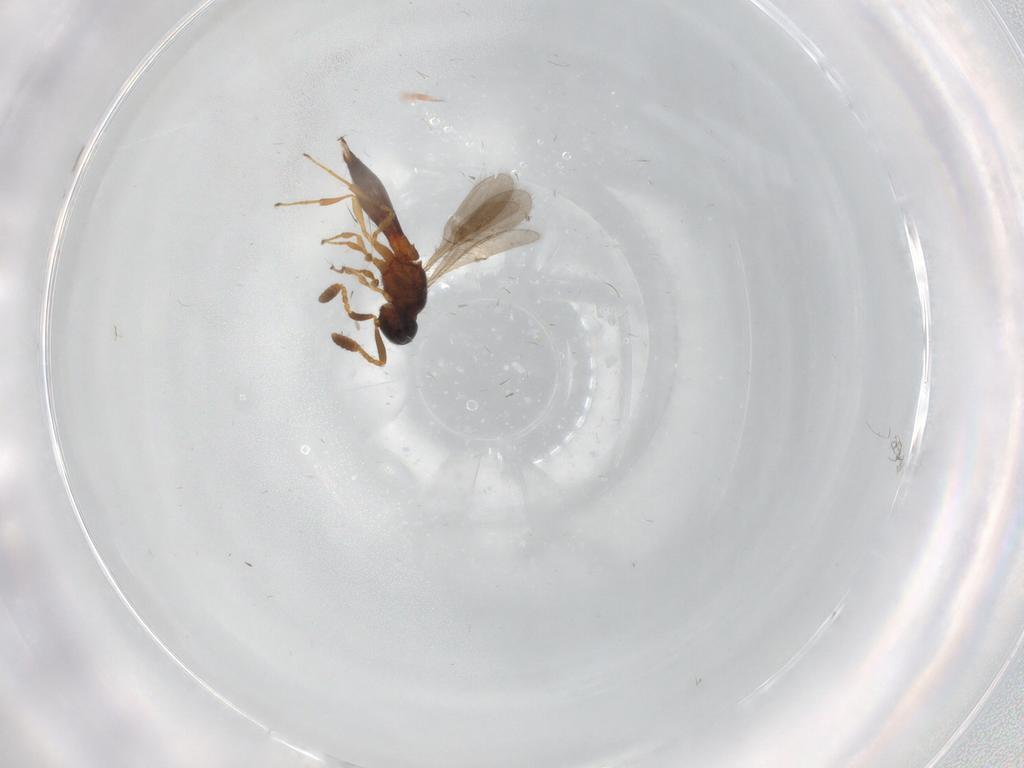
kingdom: Animalia
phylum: Arthropoda
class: Insecta
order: Hymenoptera
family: Scelionidae
